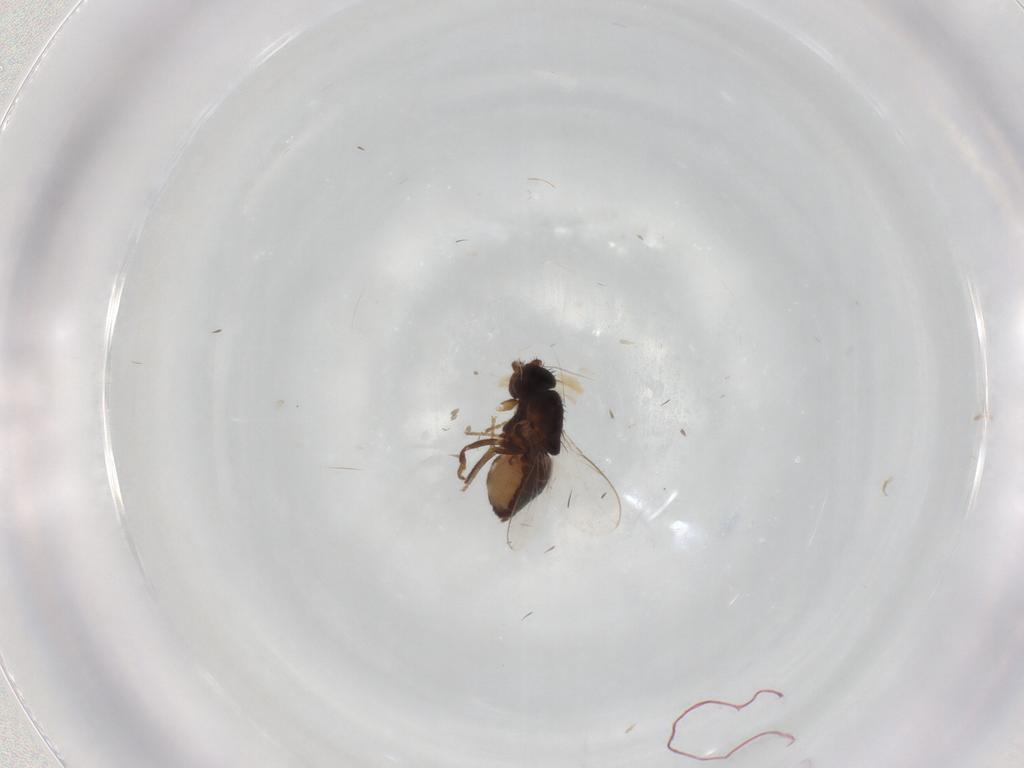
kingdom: Animalia
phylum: Arthropoda
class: Insecta
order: Diptera
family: Sphaeroceridae
